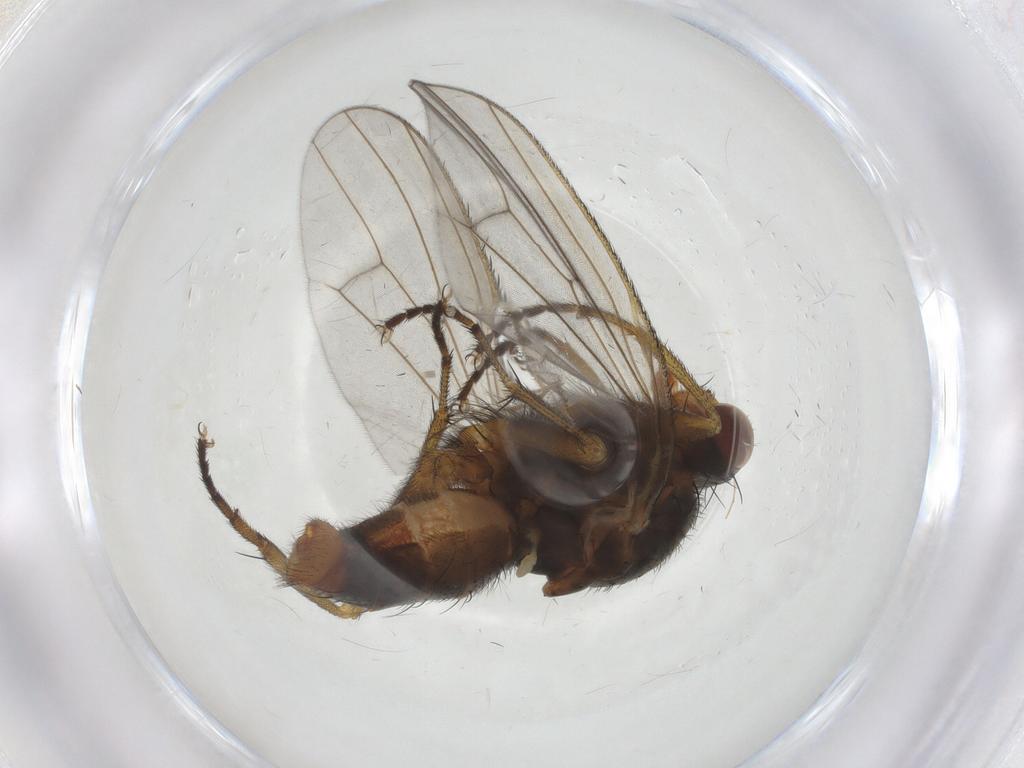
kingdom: Animalia
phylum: Arthropoda
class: Insecta
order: Diptera
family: Heleomyzidae
